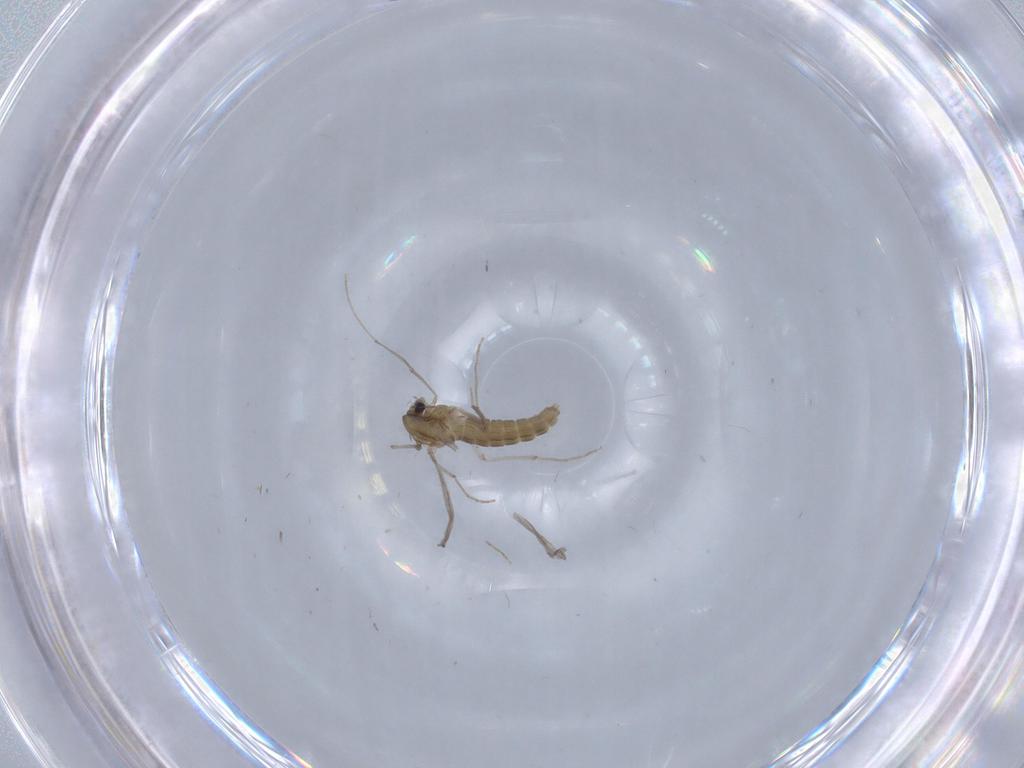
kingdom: Animalia
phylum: Arthropoda
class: Insecta
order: Diptera
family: Chironomidae
